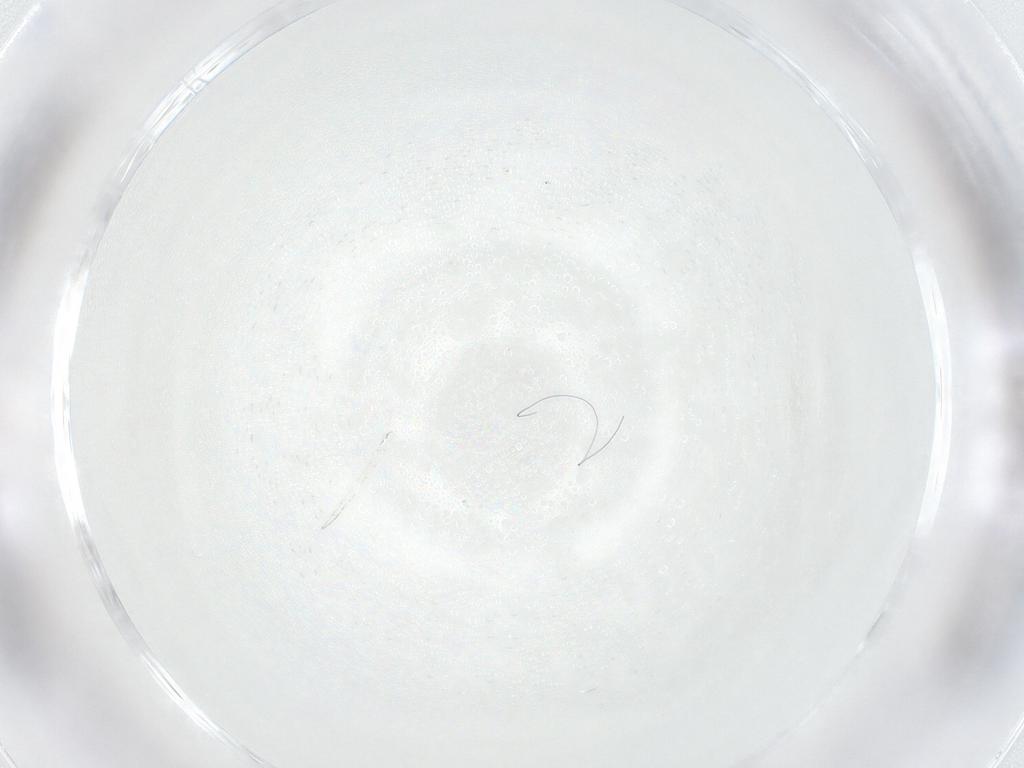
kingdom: Animalia
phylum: Arthropoda
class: Collembola
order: Poduromorpha
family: Onychiuridae
